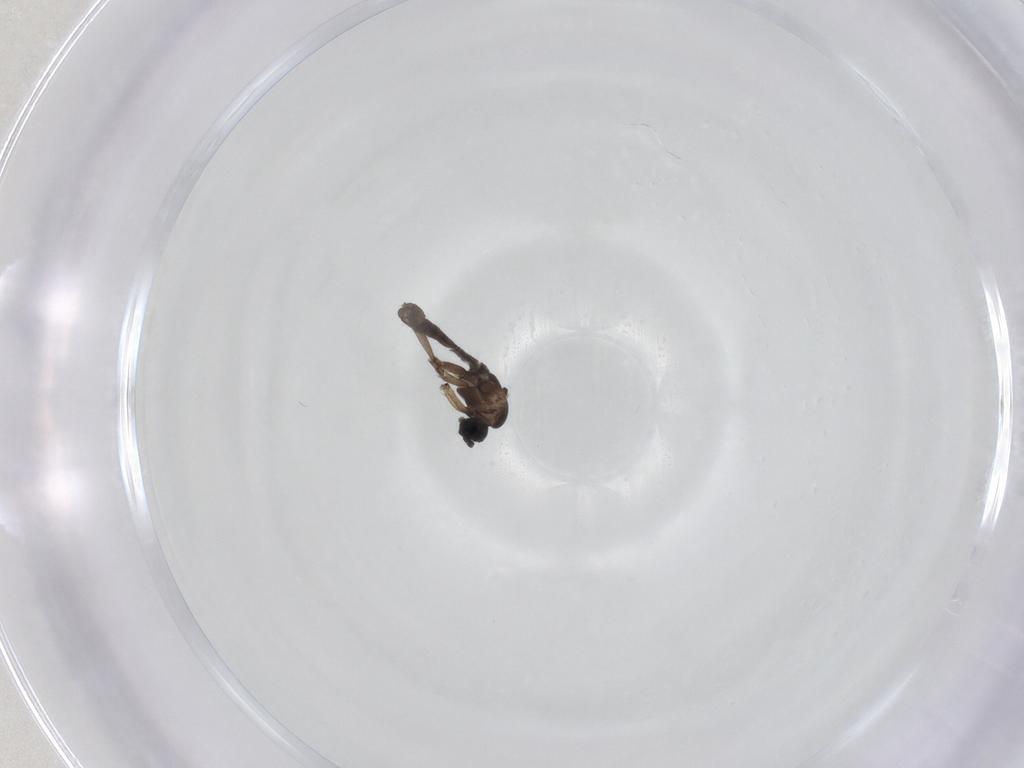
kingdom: Animalia
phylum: Arthropoda
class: Insecta
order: Diptera
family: Sciaridae
